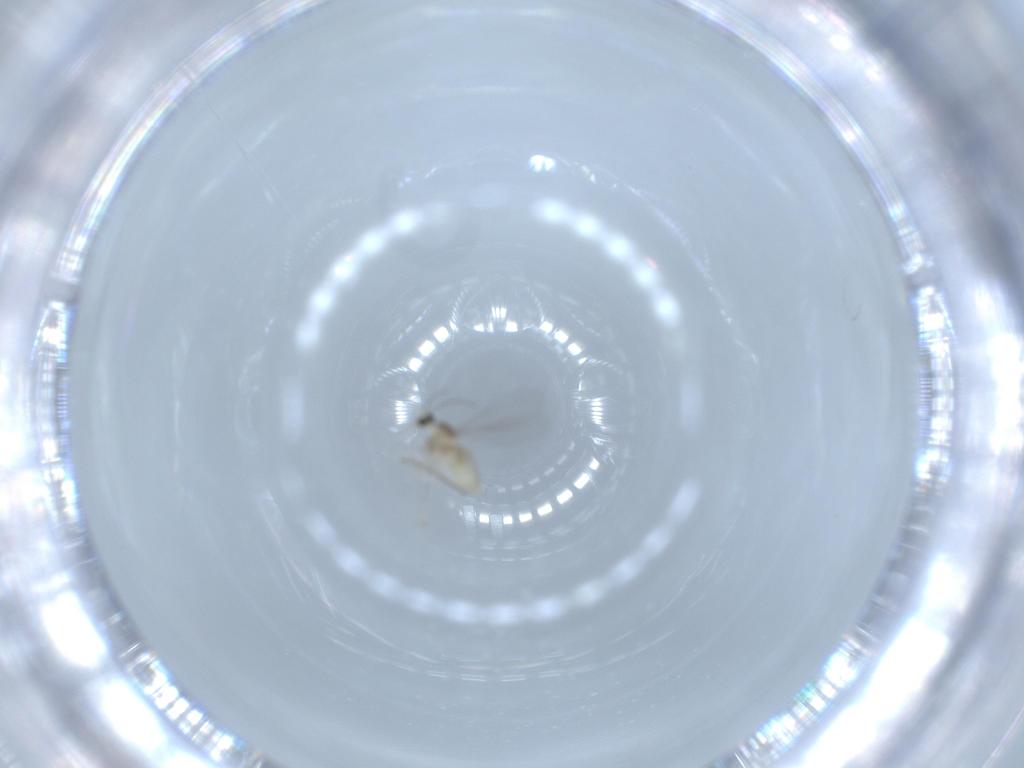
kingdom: Animalia
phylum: Arthropoda
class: Insecta
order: Diptera
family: Cecidomyiidae
